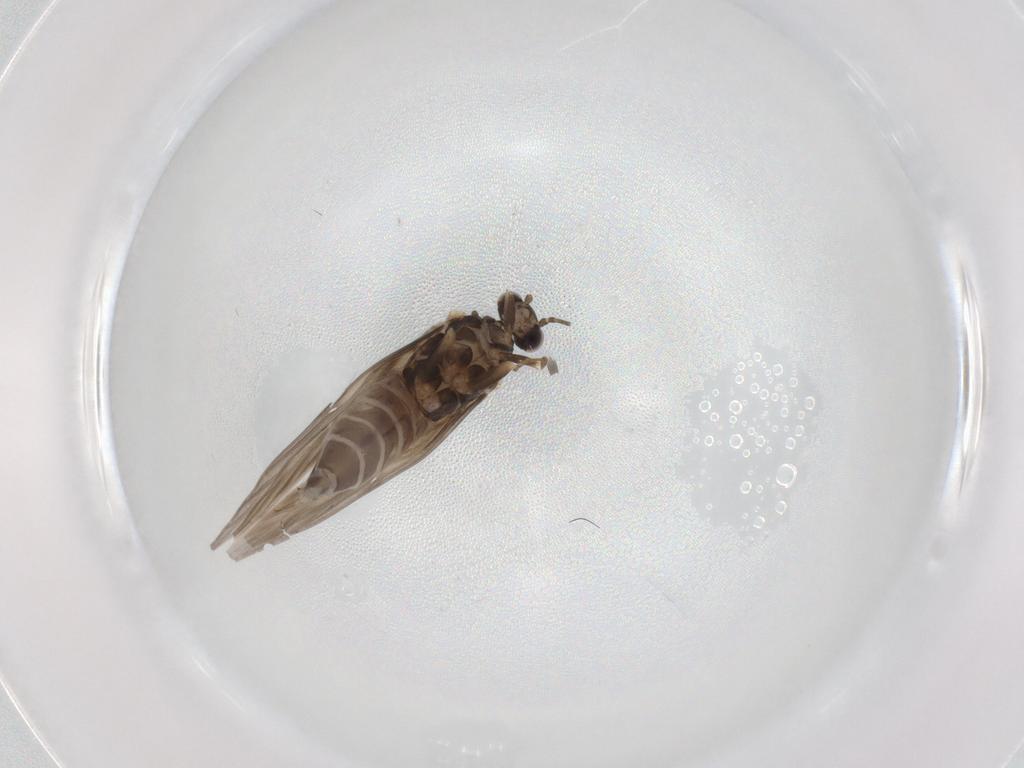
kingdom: Animalia
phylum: Arthropoda
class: Insecta
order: Trichoptera
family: Hydroptilidae
